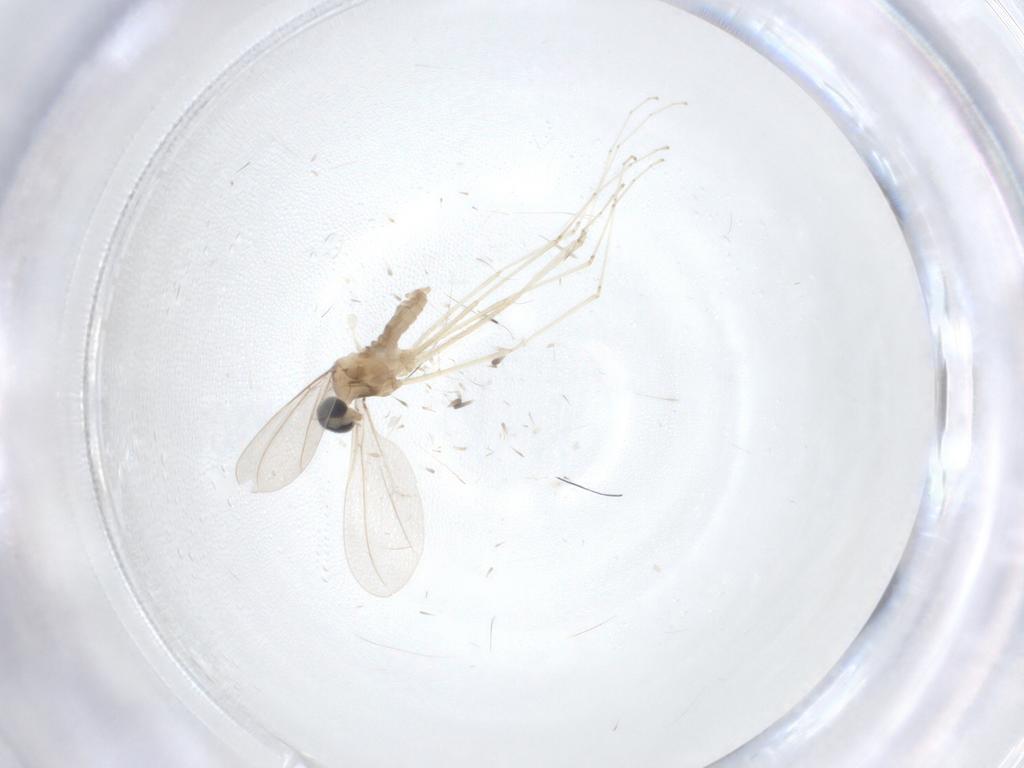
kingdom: Animalia
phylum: Arthropoda
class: Insecta
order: Diptera
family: Cecidomyiidae
